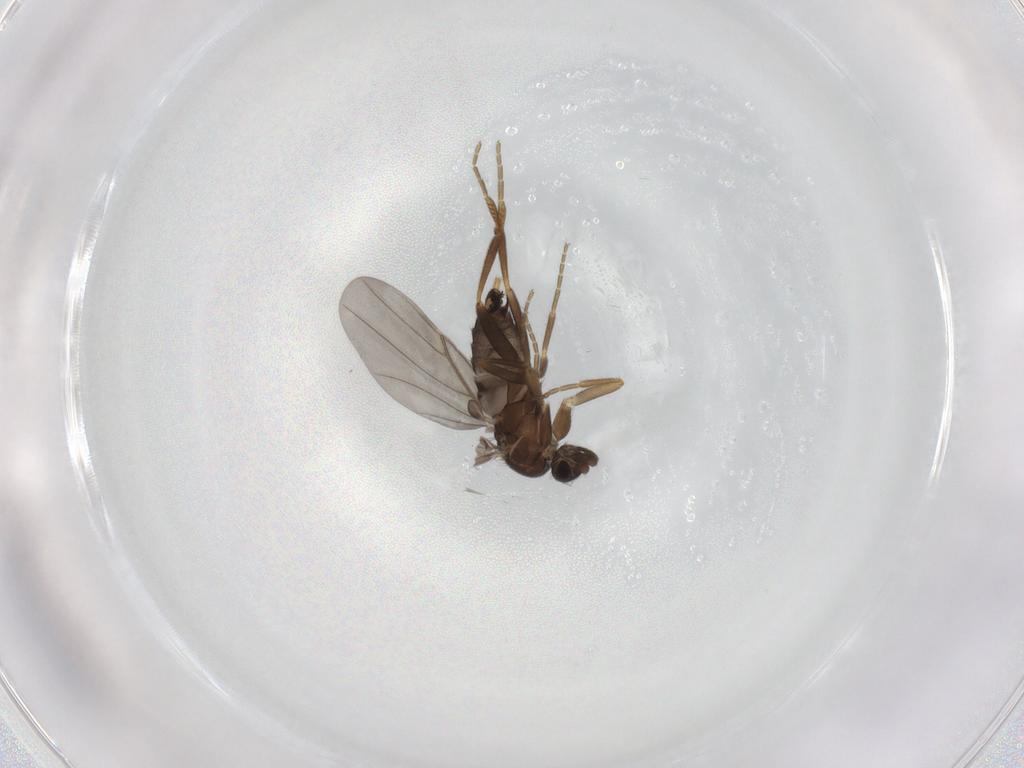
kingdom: Animalia
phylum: Arthropoda
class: Insecta
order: Diptera
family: Phoridae
